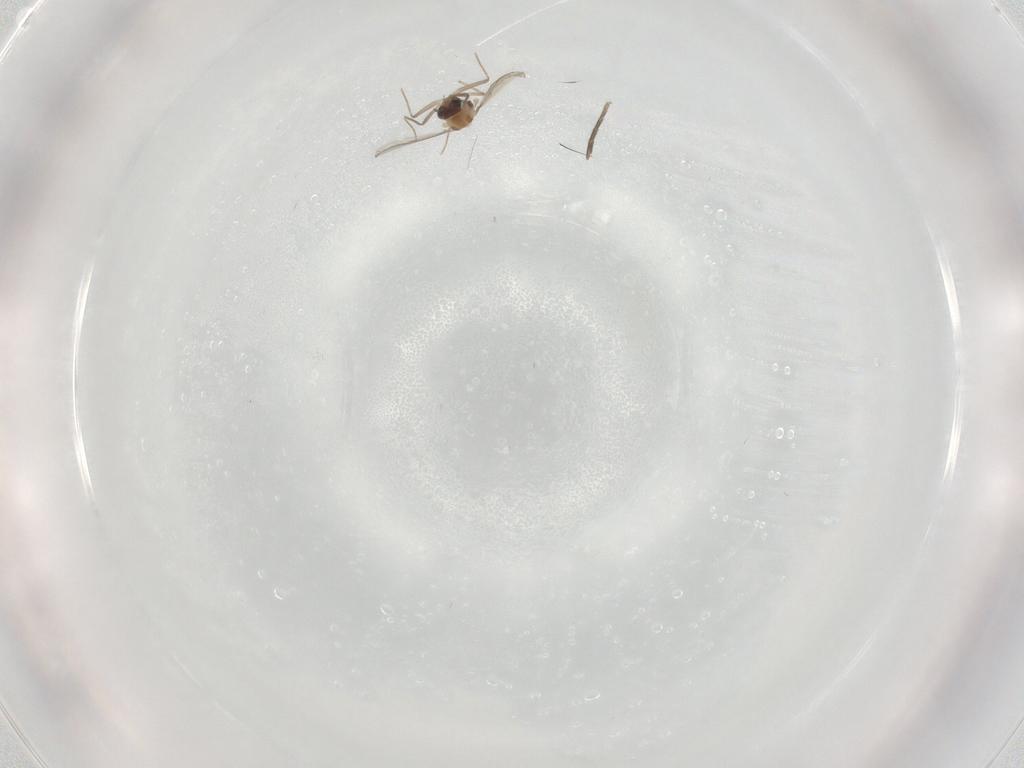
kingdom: Animalia
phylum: Arthropoda
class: Insecta
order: Diptera
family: Chironomidae
